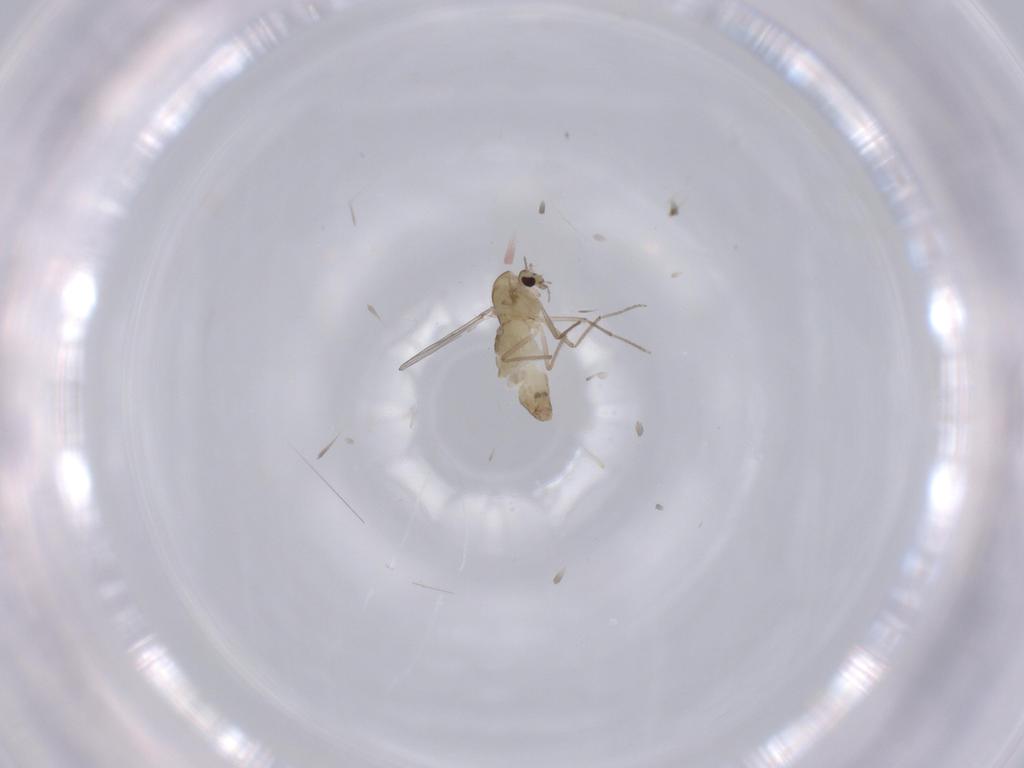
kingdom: Animalia
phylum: Arthropoda
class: Insecta
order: Diptera
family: Chironomidae
